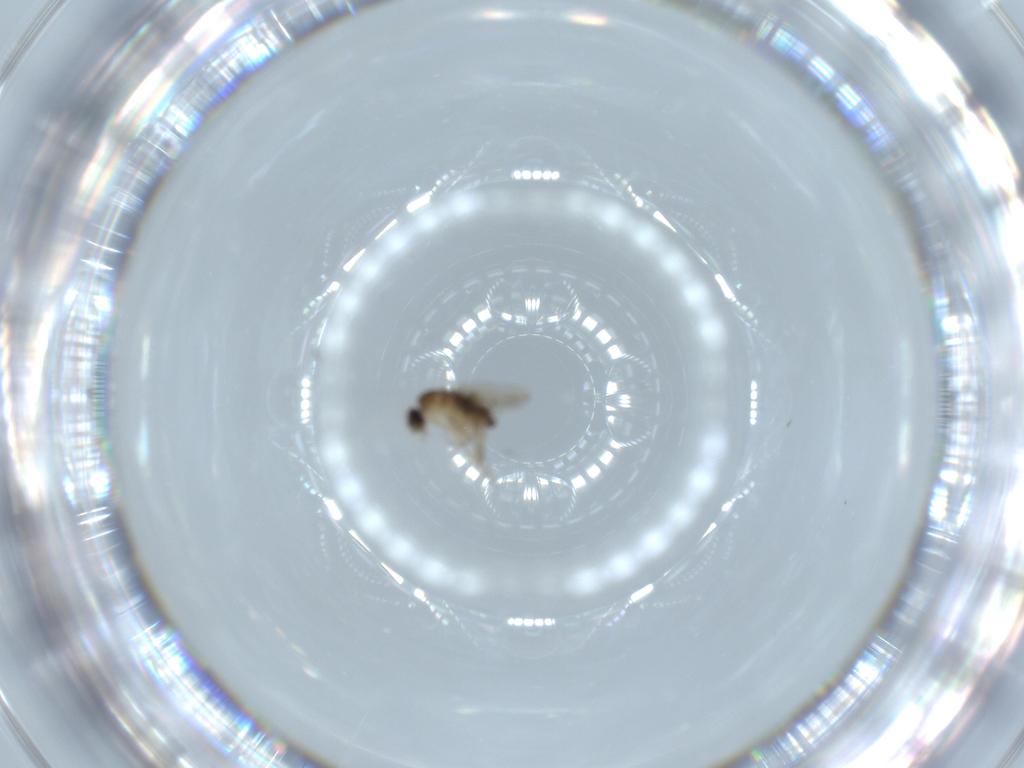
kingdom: Animalia
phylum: Arthropoda
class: Insecta
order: Diptera
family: Phoridae
